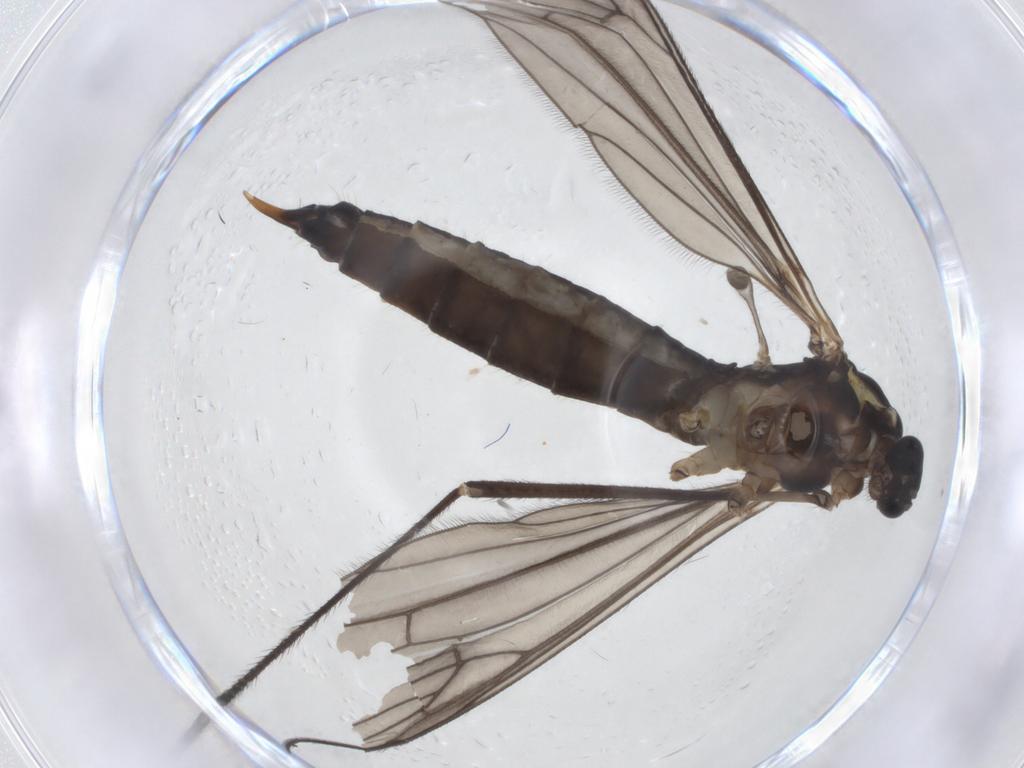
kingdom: Animalia
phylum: Arthropoda
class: Insecta
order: Diptera
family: Limoniidae
